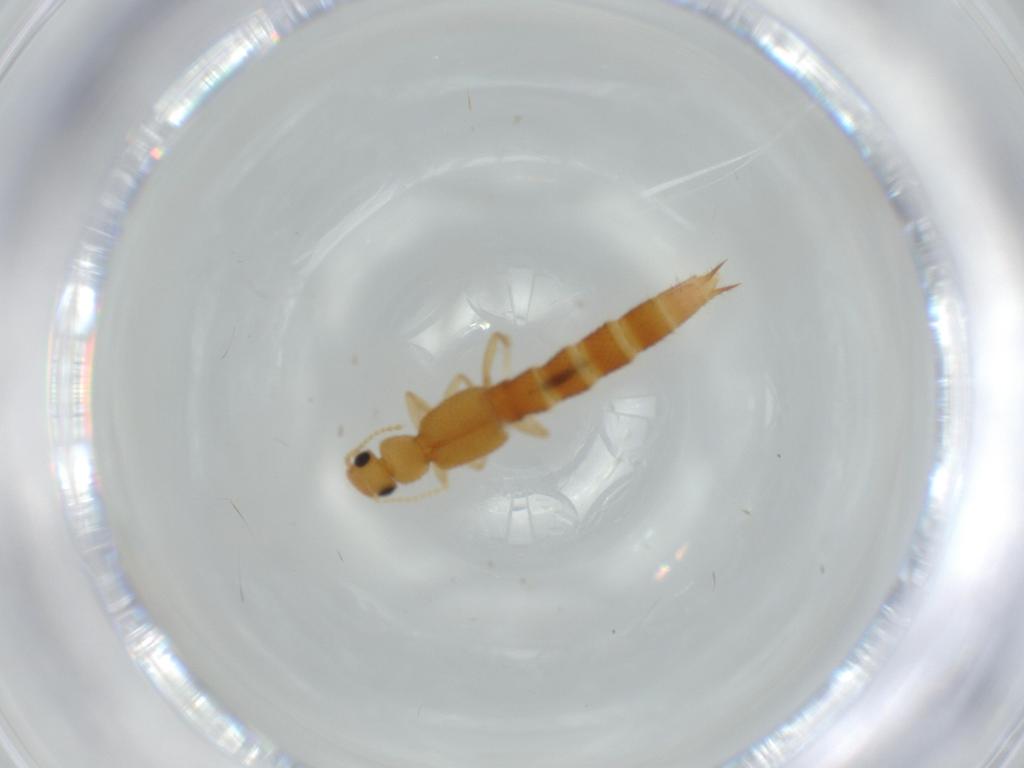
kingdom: Animalia
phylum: Arthropoda
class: Insecta
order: Coleoptera
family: Staphylinidae
